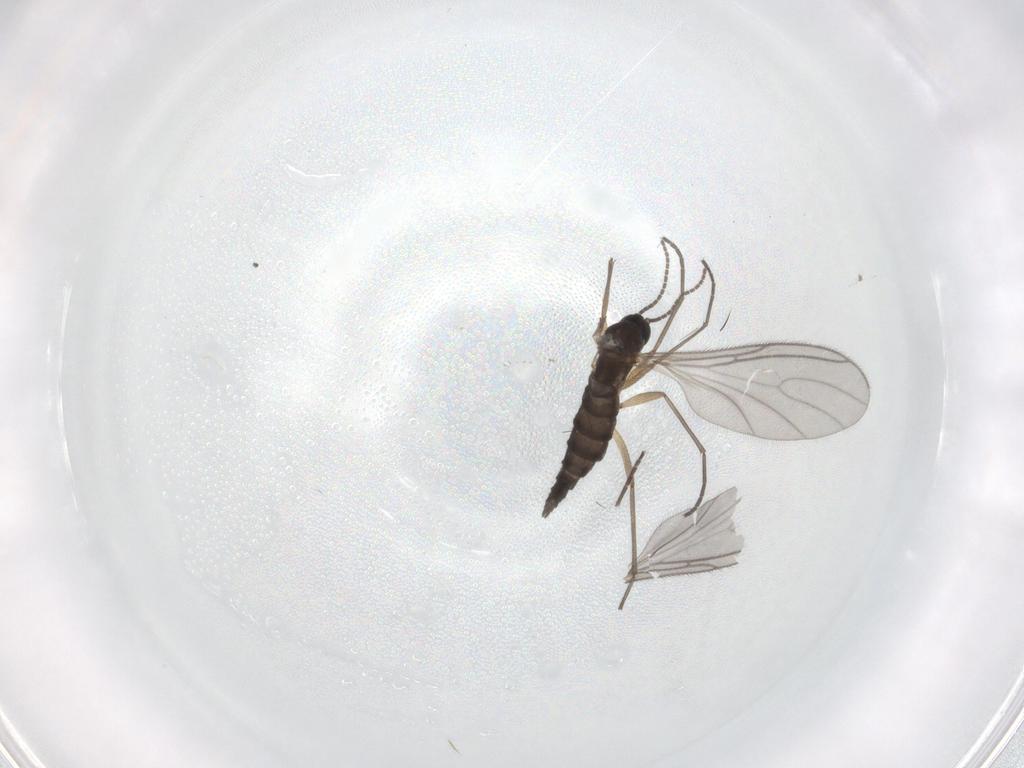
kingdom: Animalia
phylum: Arthropoda
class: Insecta
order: Diptera
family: Sciaridae
